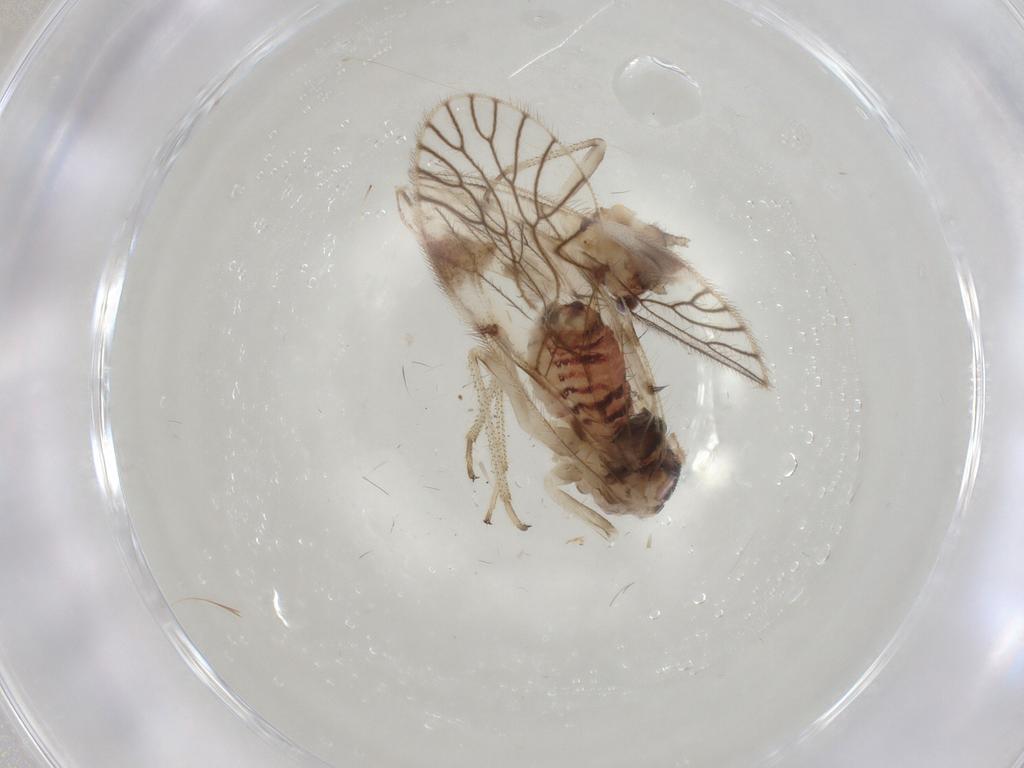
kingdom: Animalia
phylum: Arthropoda
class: Insecta
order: Psocodea
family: Amphipsocidae
